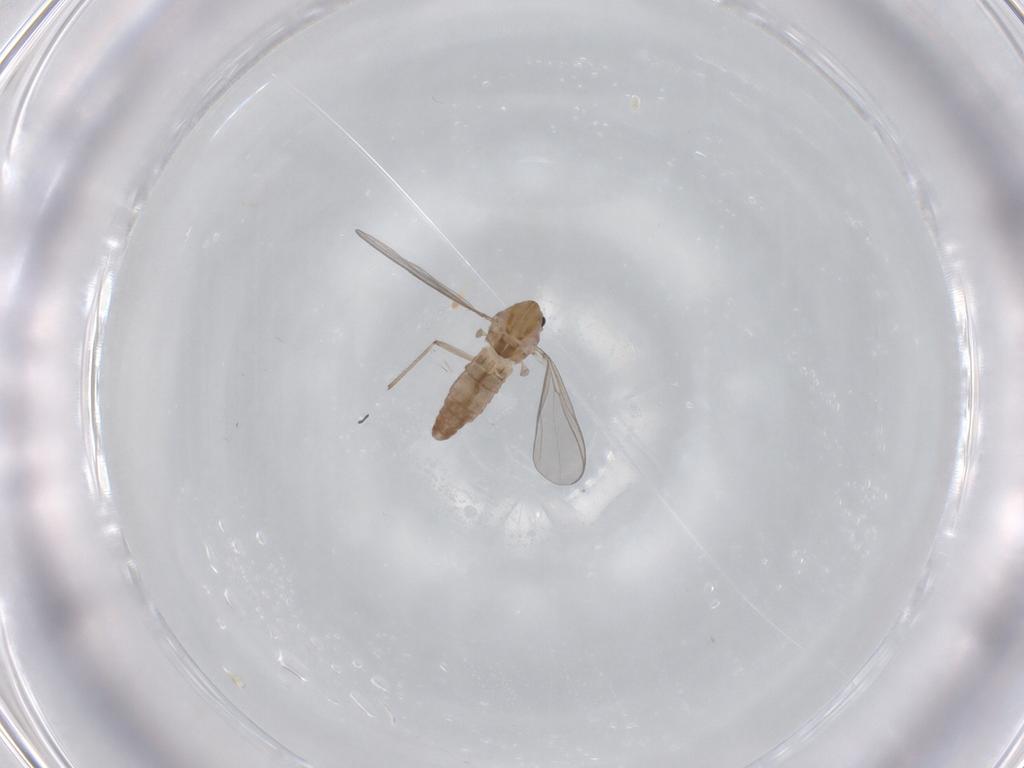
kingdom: Animalia
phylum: Arthropoda
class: Insecta
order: Diptera
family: Chironomidae
